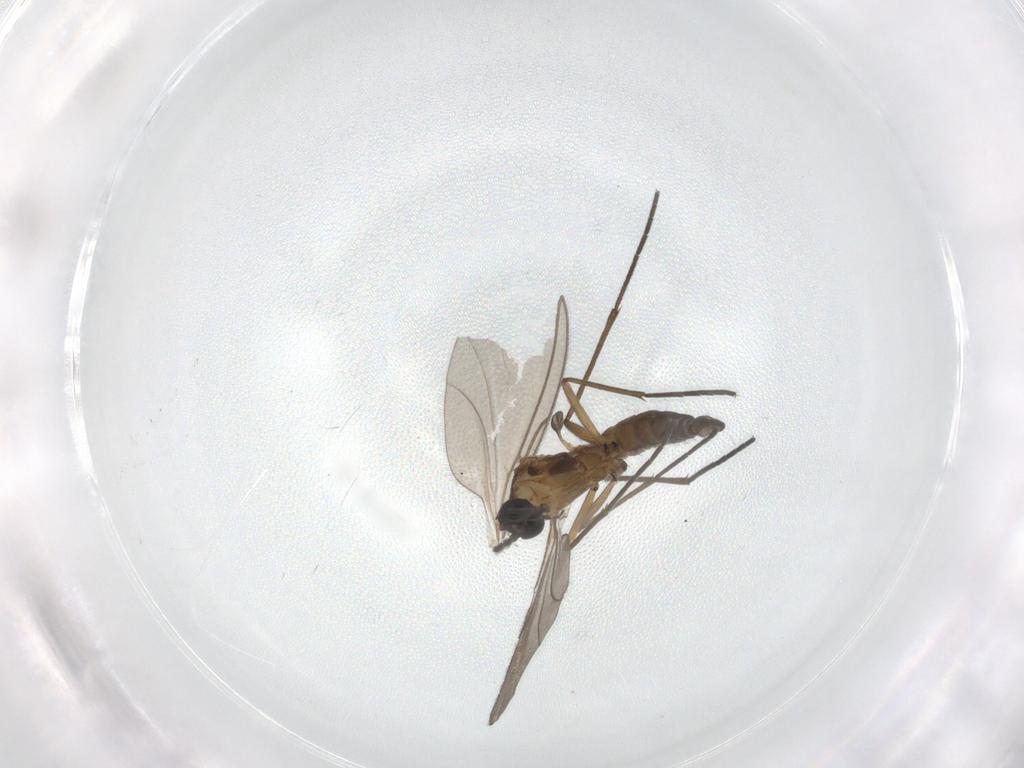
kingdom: Animalia
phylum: Arthropoda
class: Insecta
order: Diptera
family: Sciaridae
